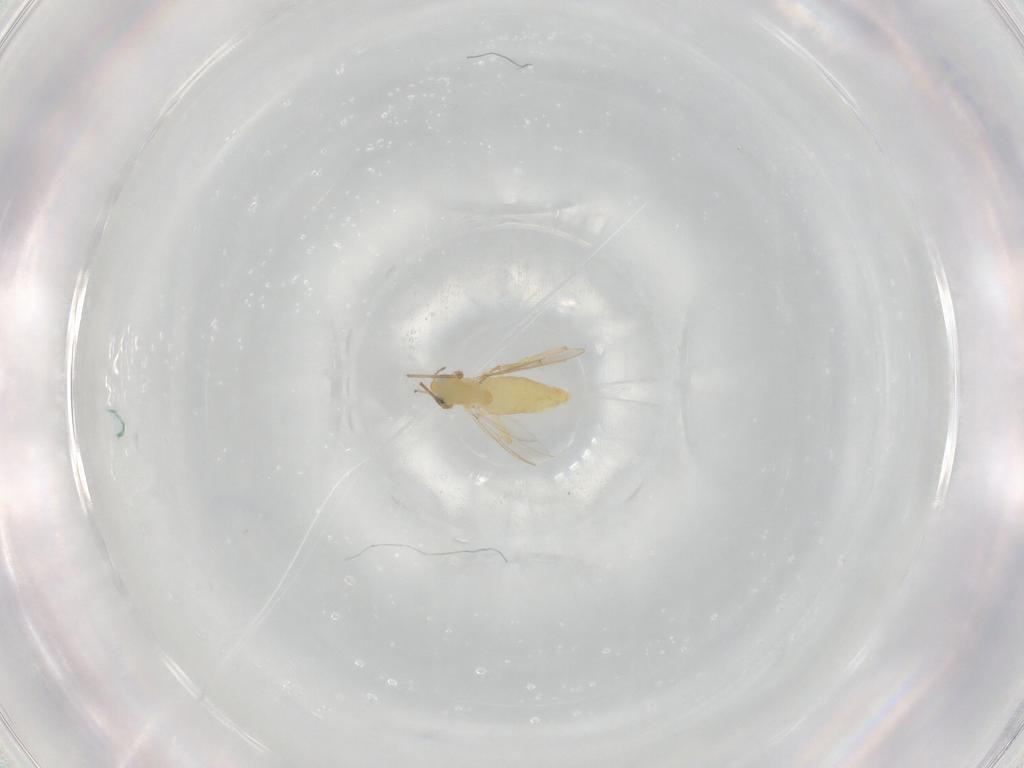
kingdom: Animalia
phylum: Arthropoda
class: Insecta
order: Diptera
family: Chironomidae
